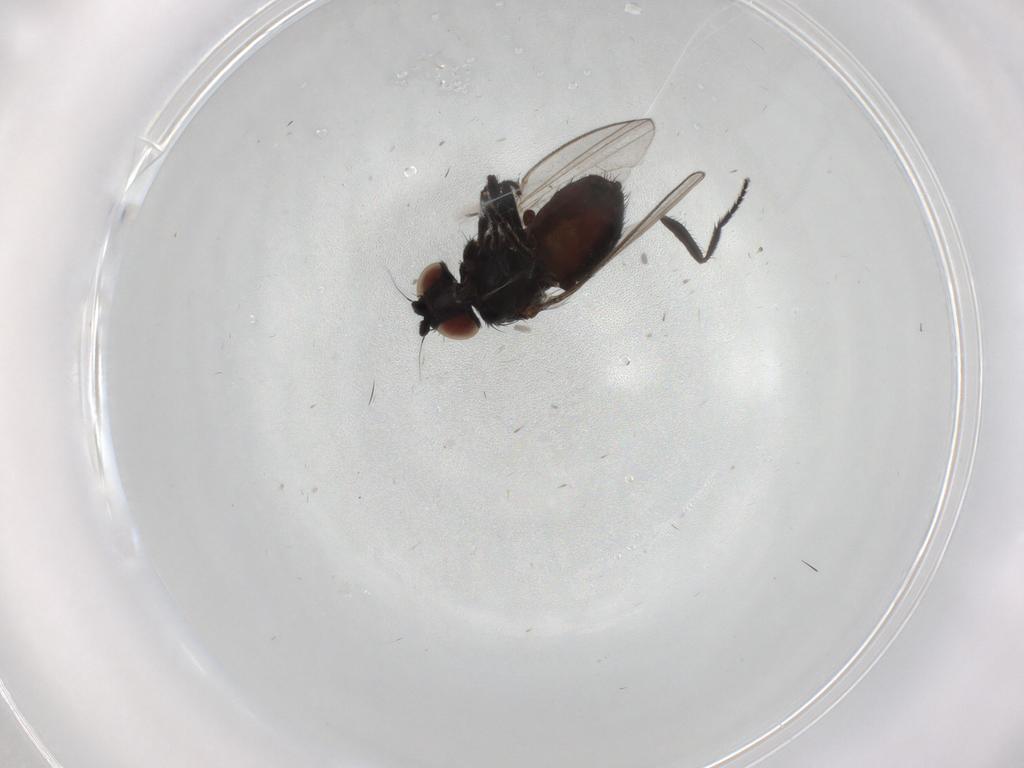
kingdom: Animalia
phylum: Arthropoda
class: Insecta
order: Diptera
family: Milichiidae
